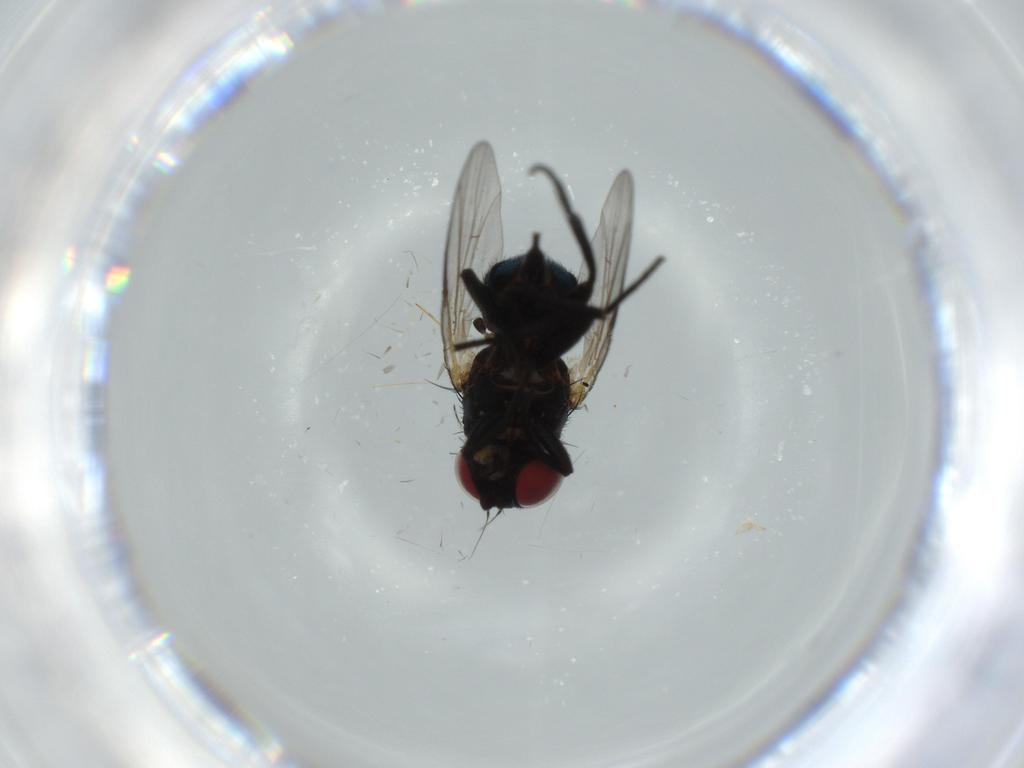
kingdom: Animalia
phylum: Arthropoda
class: Insecta
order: Diptera
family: Agromyzidae
